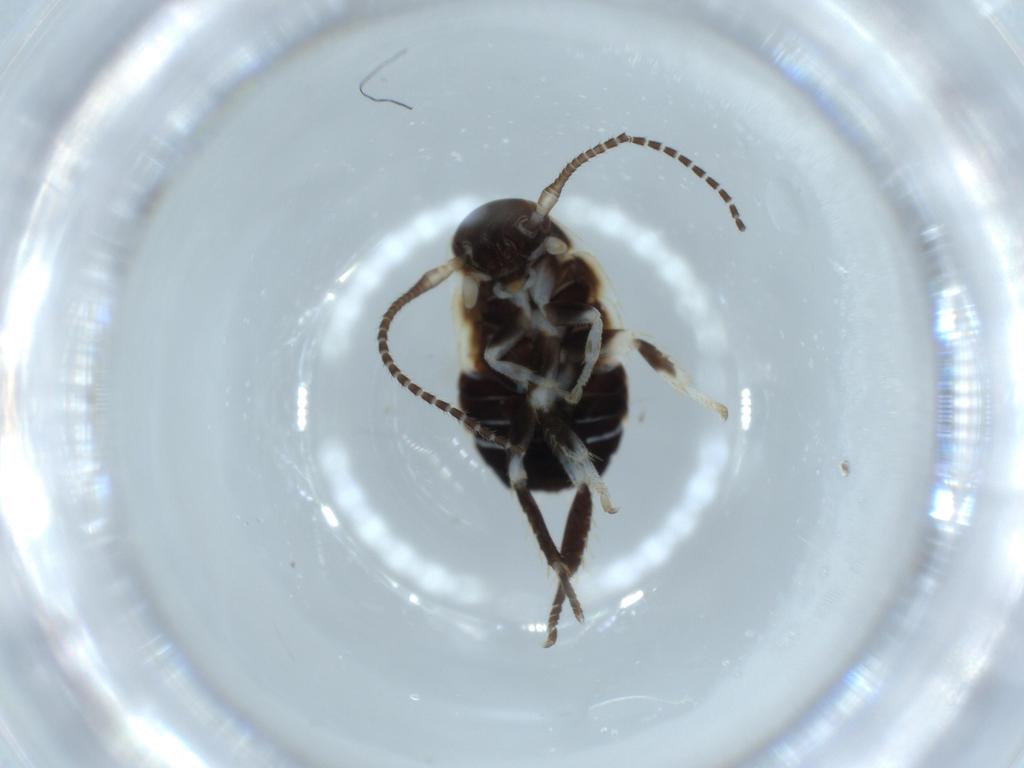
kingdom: Animalia
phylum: Arthropoda
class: Insecta
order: Blattodea
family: Ectobiidae
